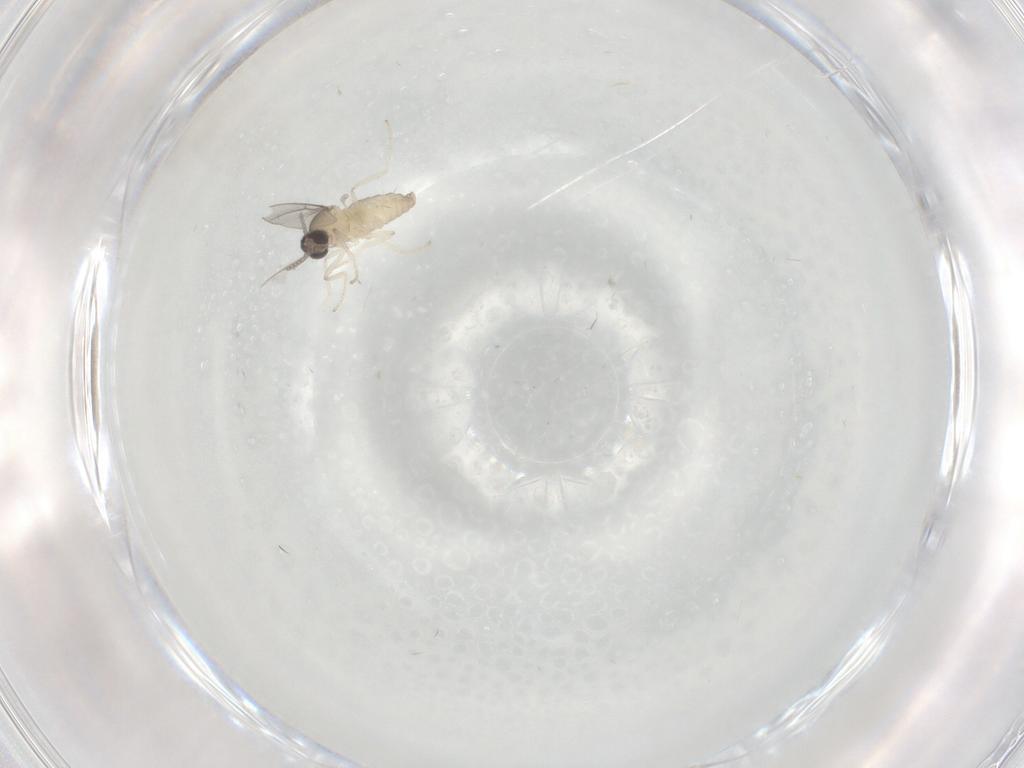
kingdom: Animalia
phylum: Arthropoda
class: Insecta
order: Diptera
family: Cecidomyiidae
